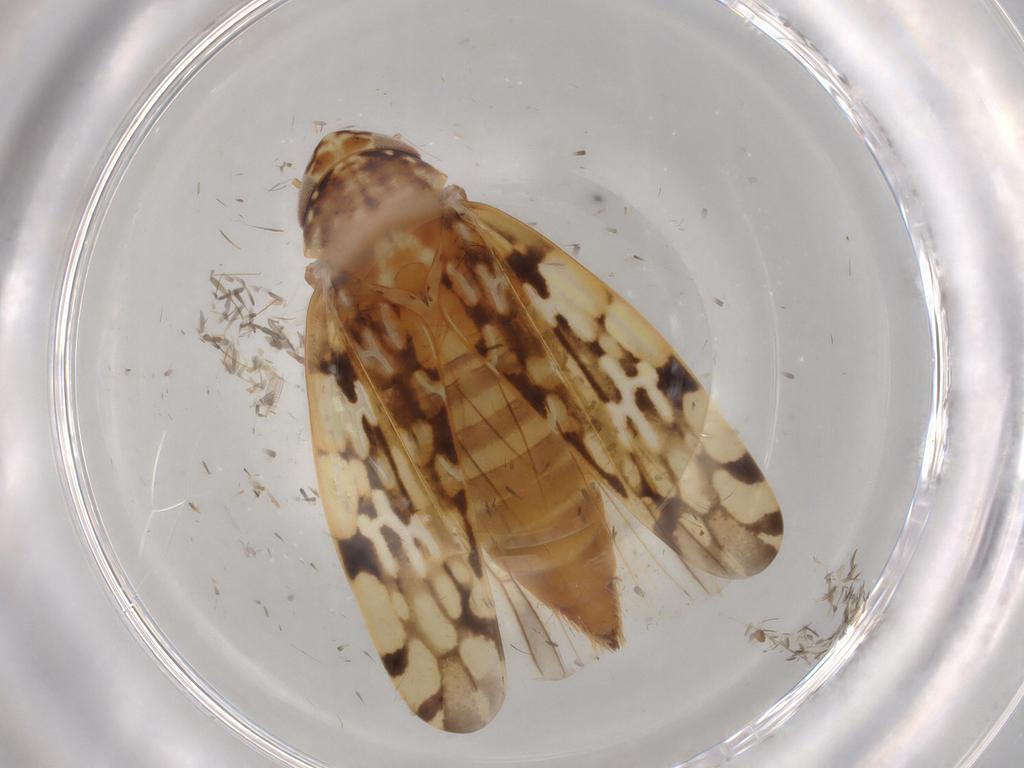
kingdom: Animalia
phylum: Arthropoda
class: Insecta
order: Hemiptera
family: Cicadellidae
